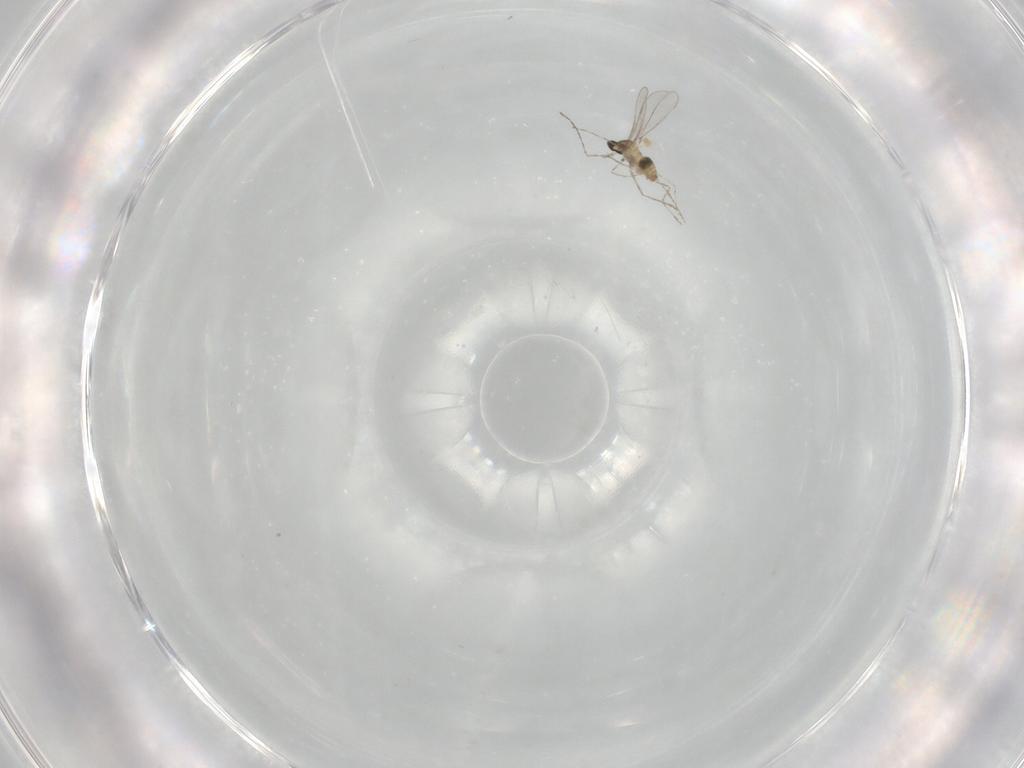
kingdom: Animalia
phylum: Arthropoda
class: Insecta
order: Diptera
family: Cecidomyiidae
